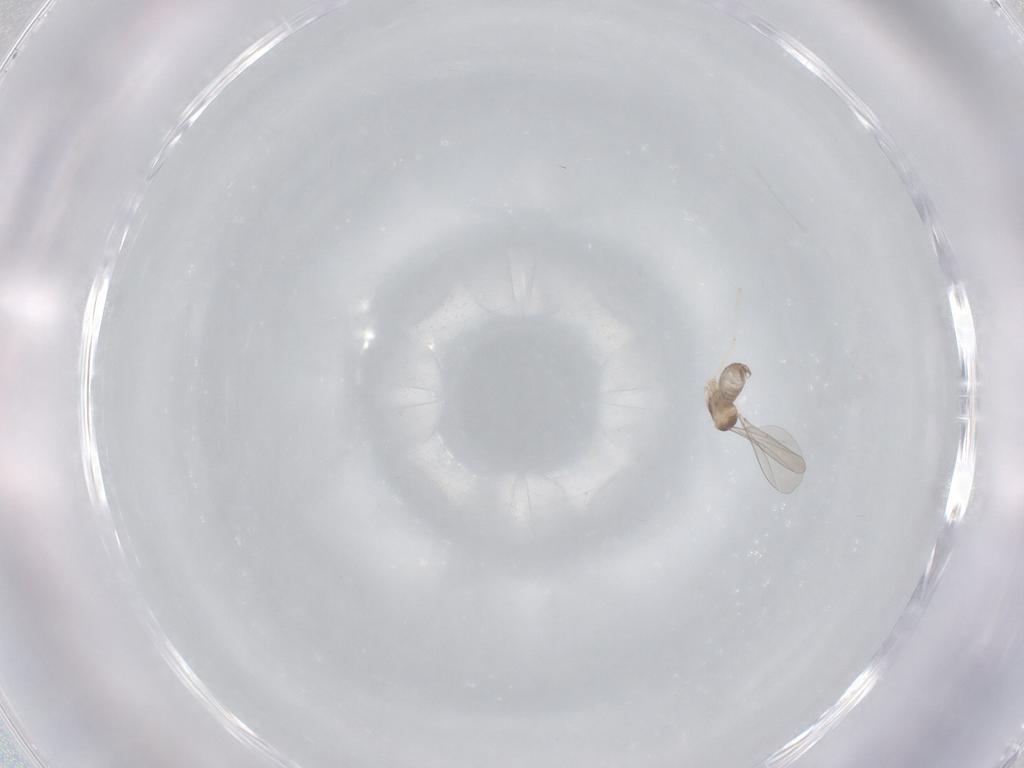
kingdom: Animalia
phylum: Arthropoda
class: Insecta
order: Diptera
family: Cecidomyiidae
